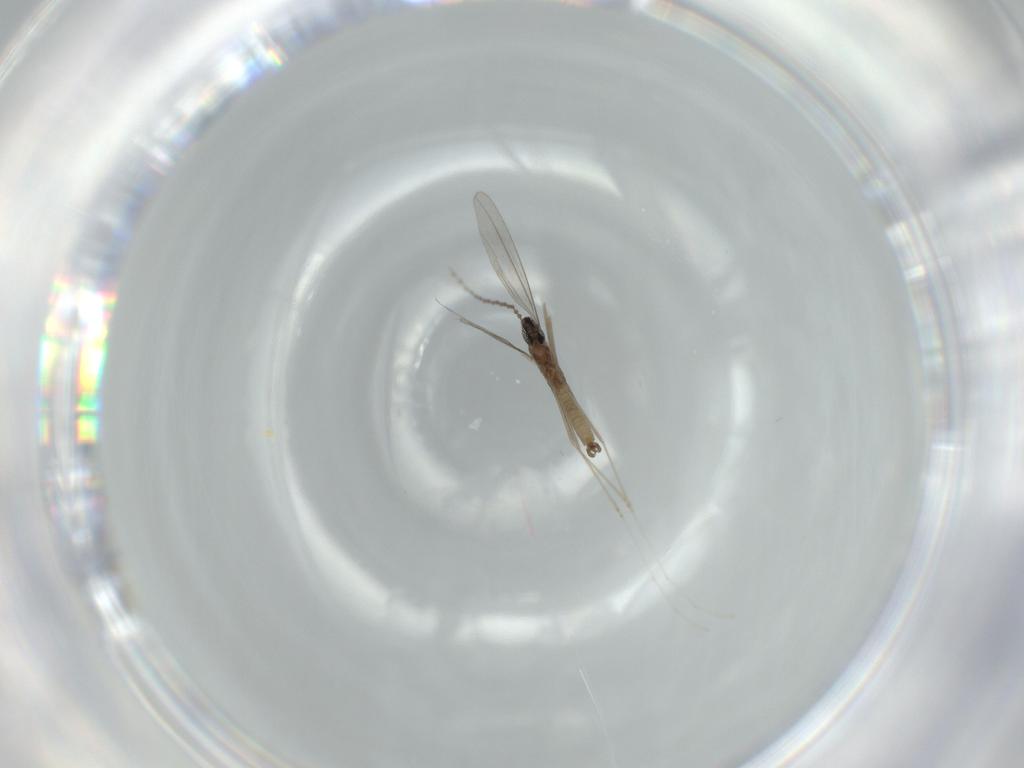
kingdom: Animalia
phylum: Arthropoda
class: Insecta
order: Diptera
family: Cecidomyiidae
